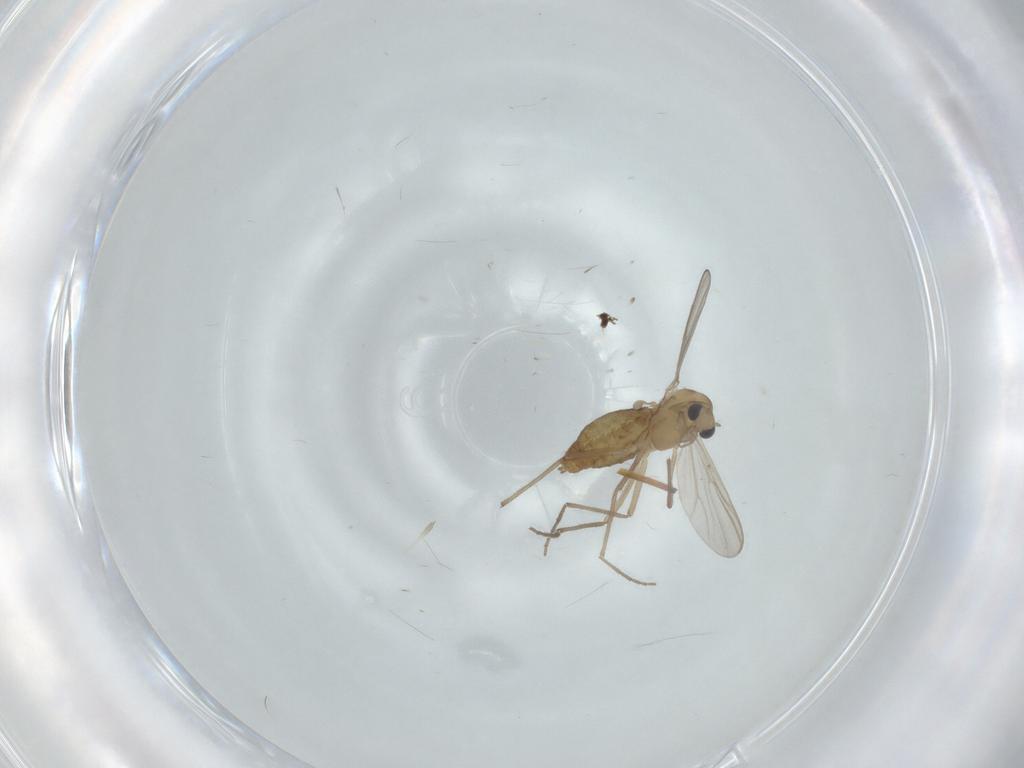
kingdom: Animalia
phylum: Arthropoda
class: Insecta
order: Diptera
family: Chironomidae
